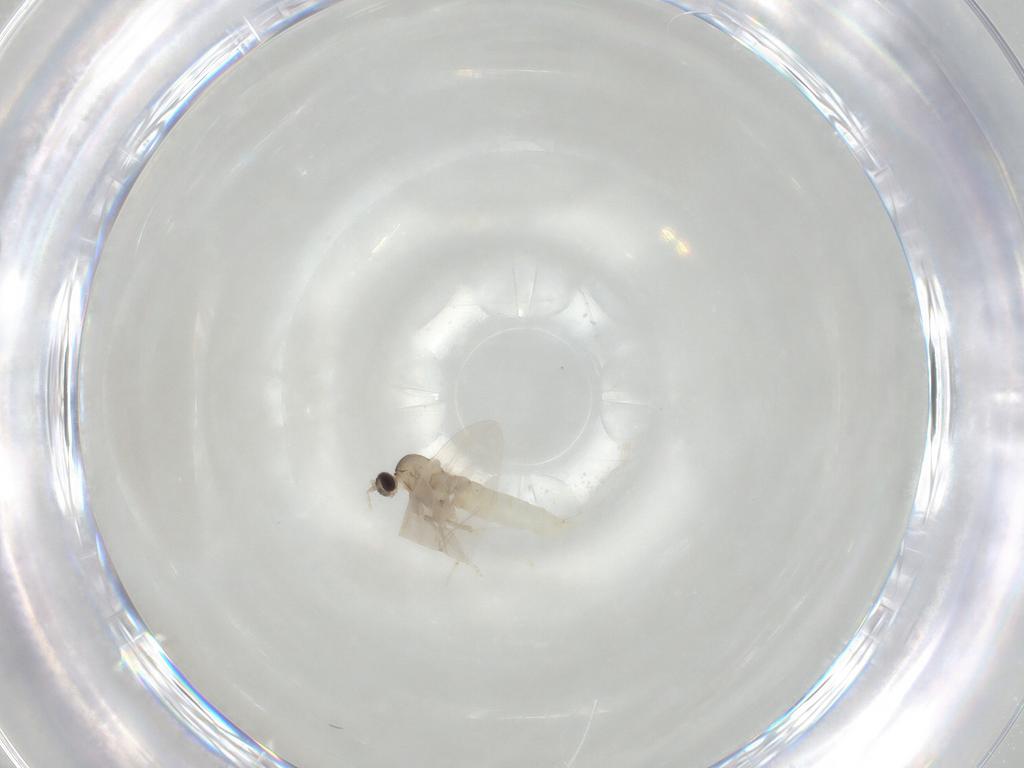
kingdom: Animalia
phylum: Arthropoda
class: Insecta
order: Diptera
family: Cecidomyiidae
